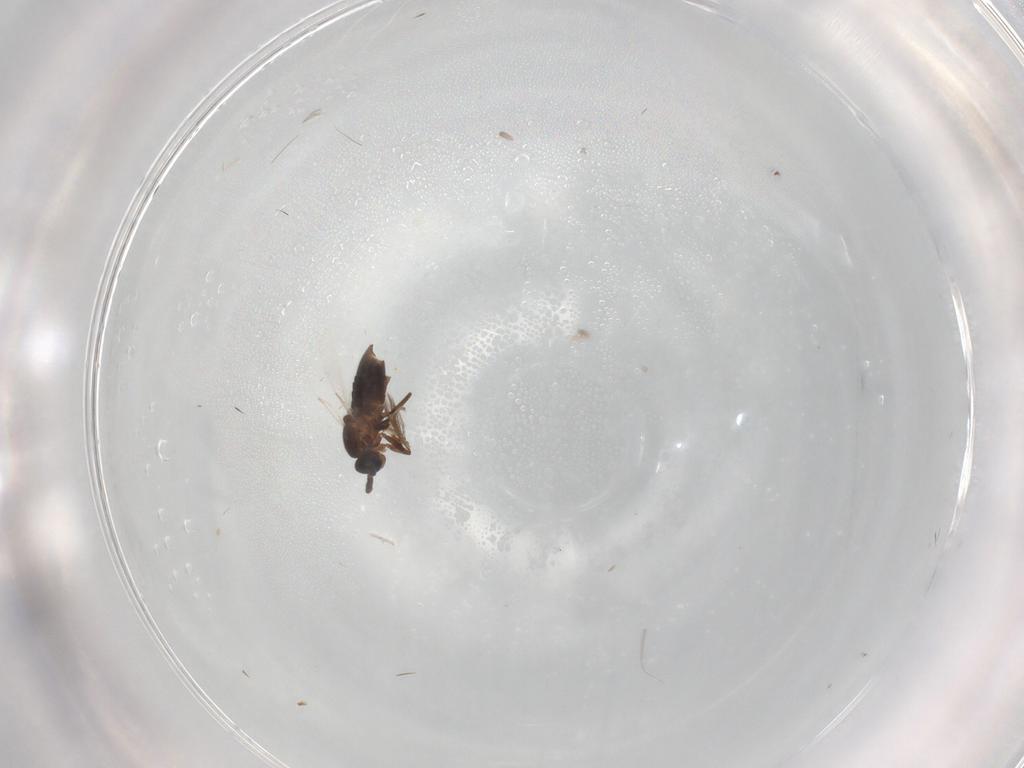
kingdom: Animalia
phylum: Arthropoda
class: Insecta
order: Diptera
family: Scatopsidae
